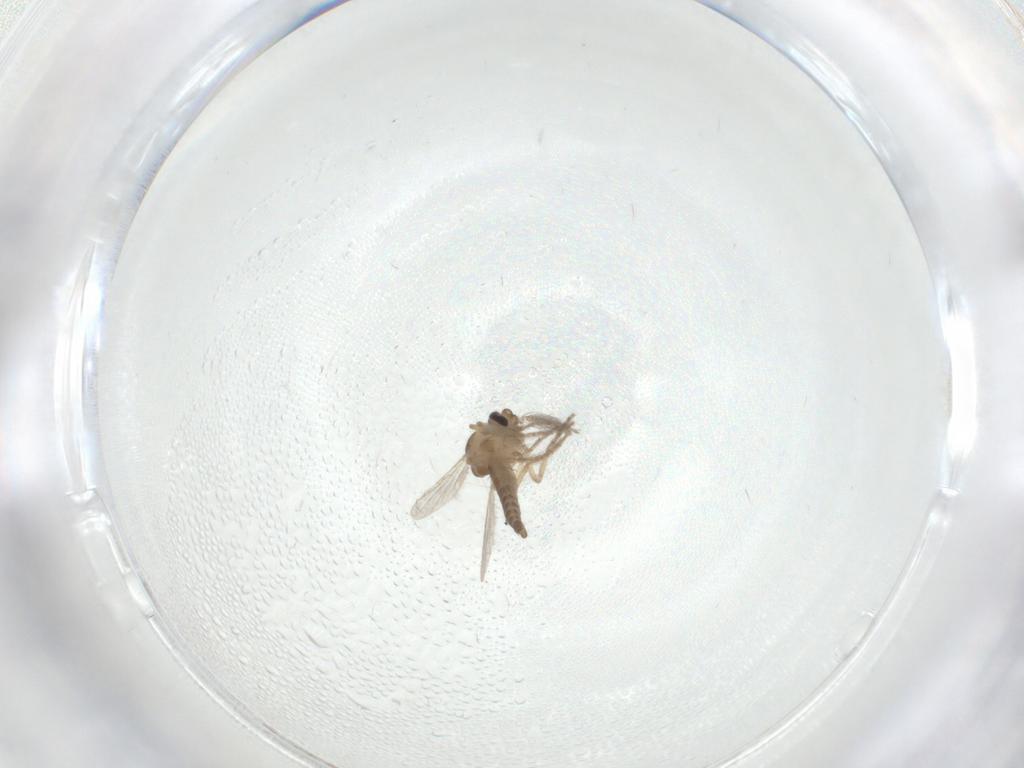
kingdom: Animalia
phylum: Arthropoda
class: Insecta
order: Diptera
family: Ceratopogonidae
